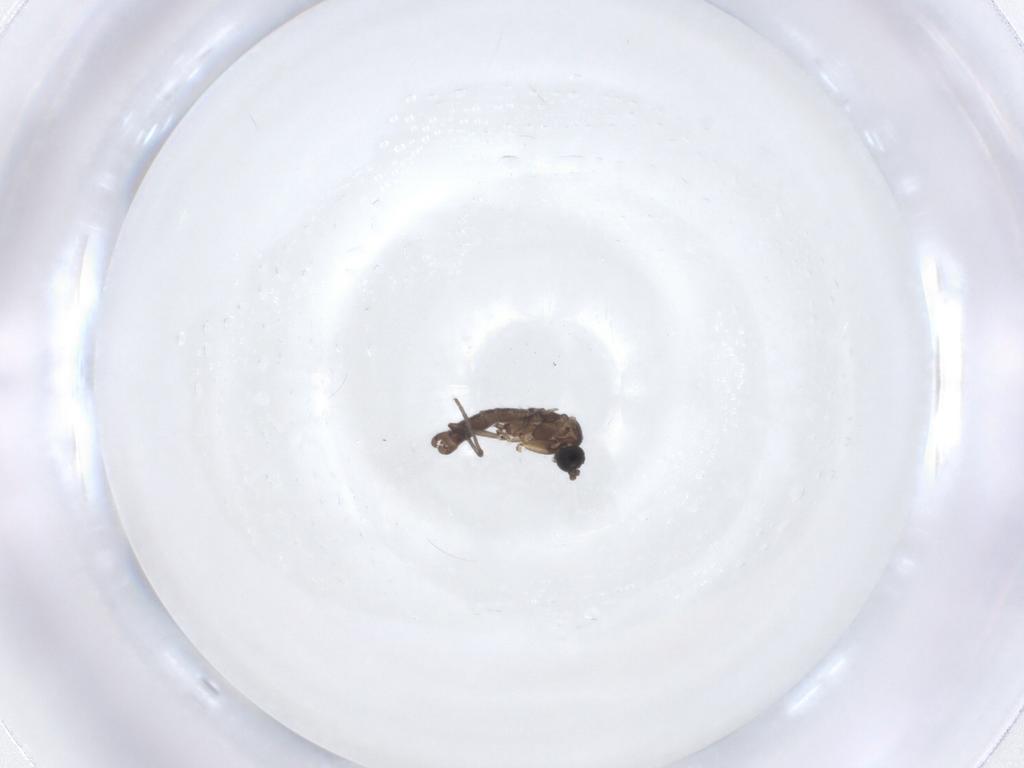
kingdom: Animalia
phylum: Arthropoda
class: Insecta
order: Diptera
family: Sciaridae
